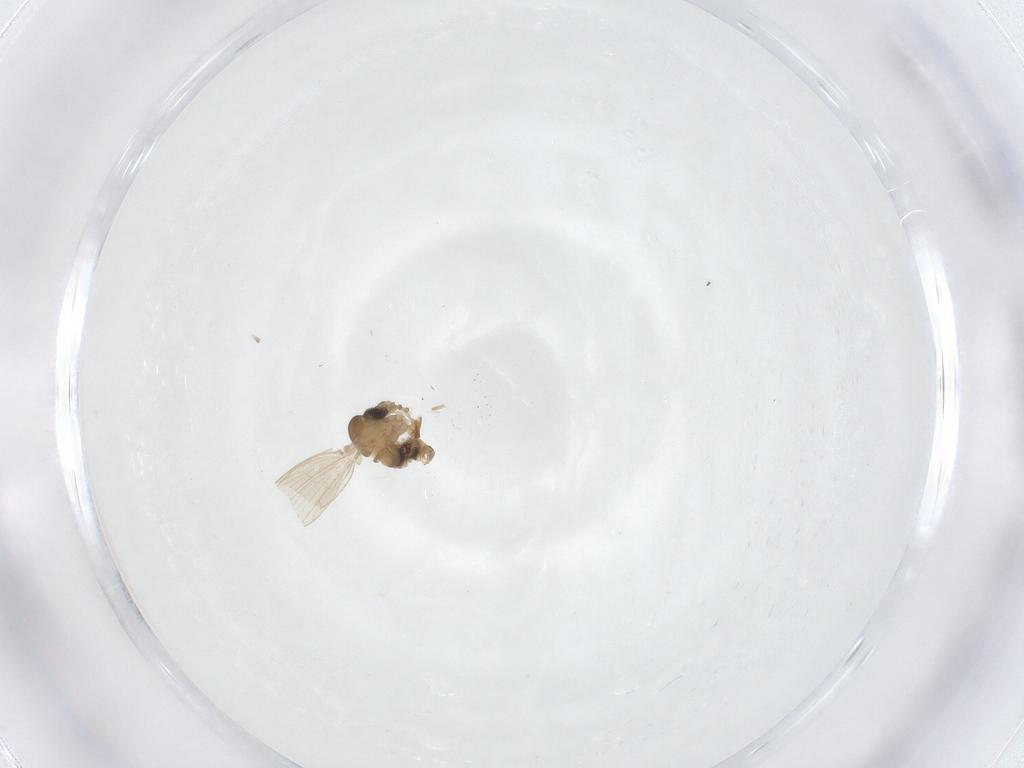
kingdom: Animalia
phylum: Arthropoda
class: Insecta
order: Diptera
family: Psychodidae
